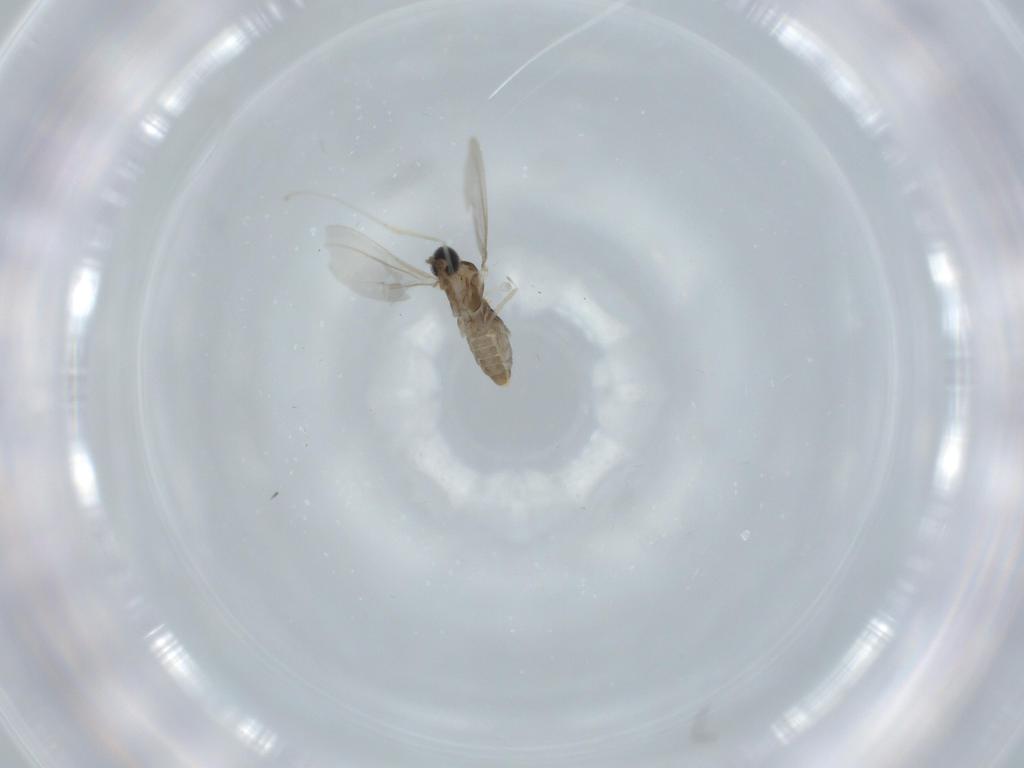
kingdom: Animalia
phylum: Arthropoda
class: Insecta
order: Diptera
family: Cecidomyiidae
